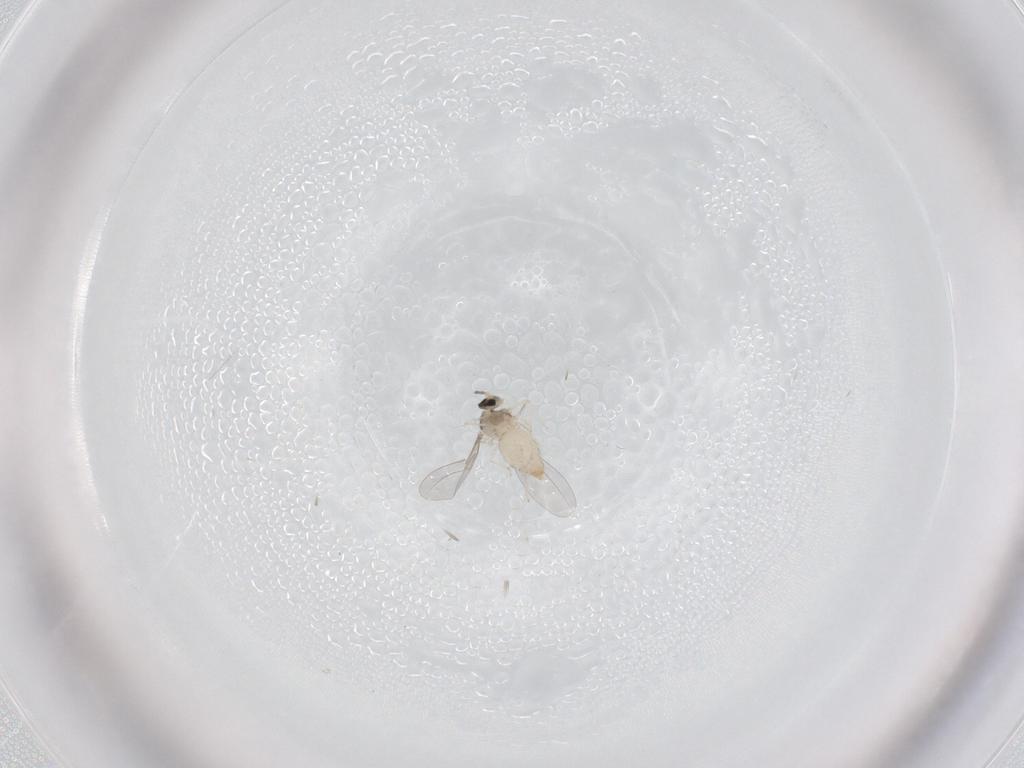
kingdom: Animalia
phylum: Arthropoda
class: Insecta
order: Diptera
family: Cecidomyiidae
